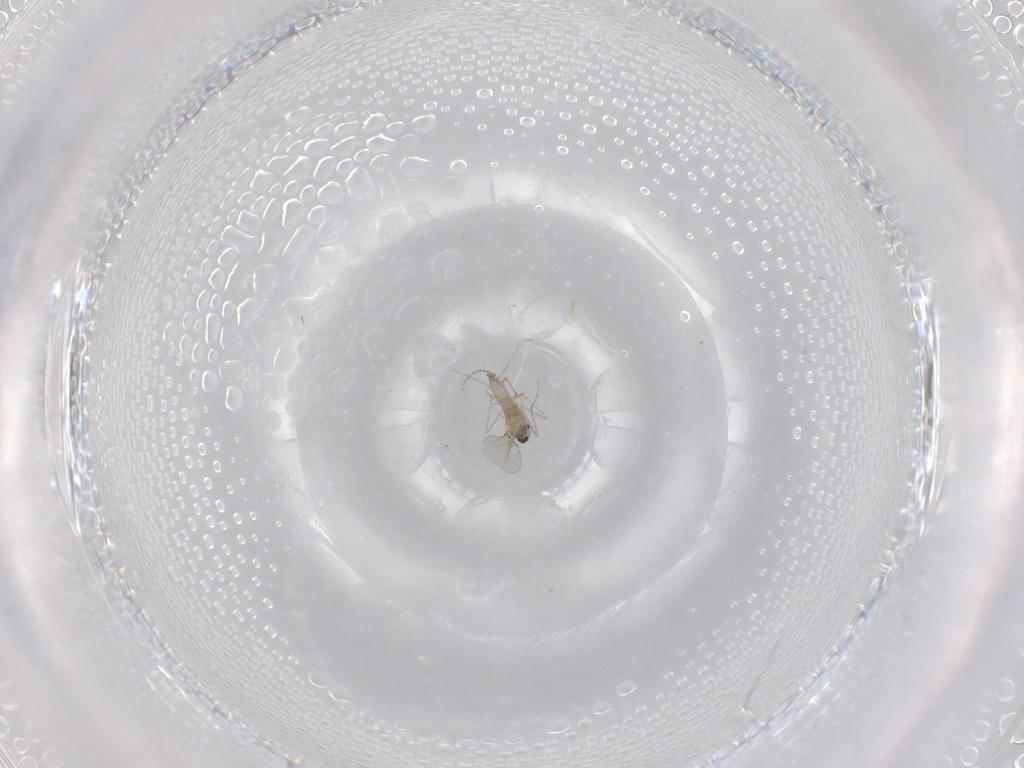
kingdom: Animalia
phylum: Arthropoda
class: Insecta
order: Diptera
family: Cecidomyiidae
